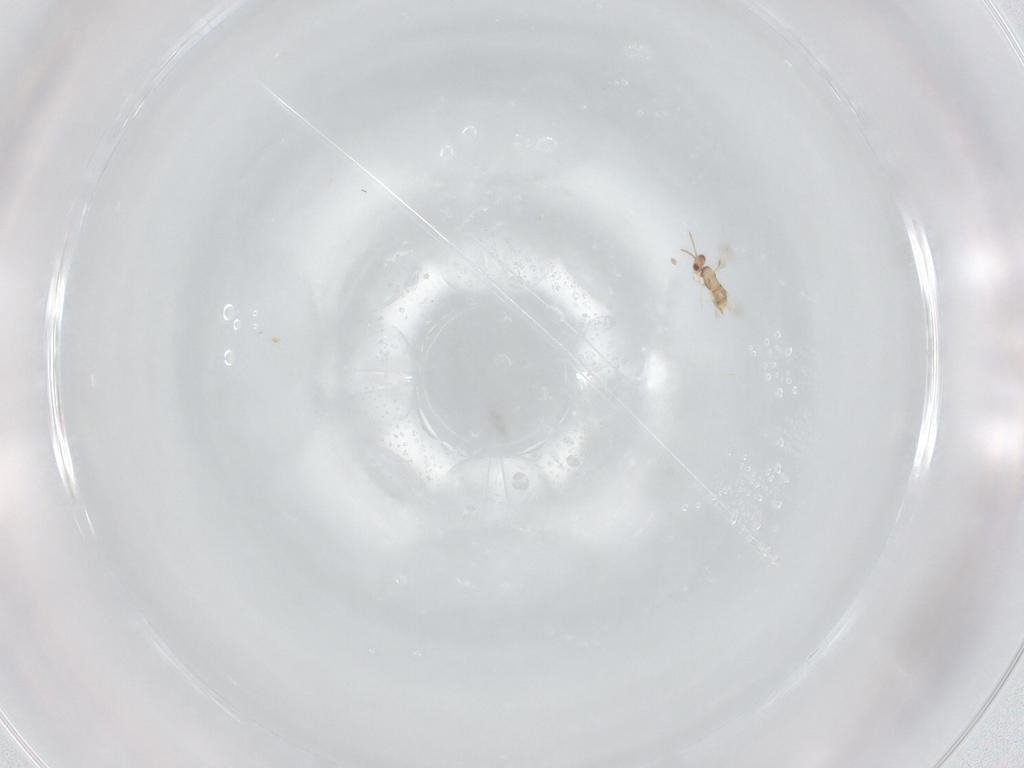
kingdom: Animalia
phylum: Arthropoda
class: Insecta
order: Hymenoptera
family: Aphelinidae
